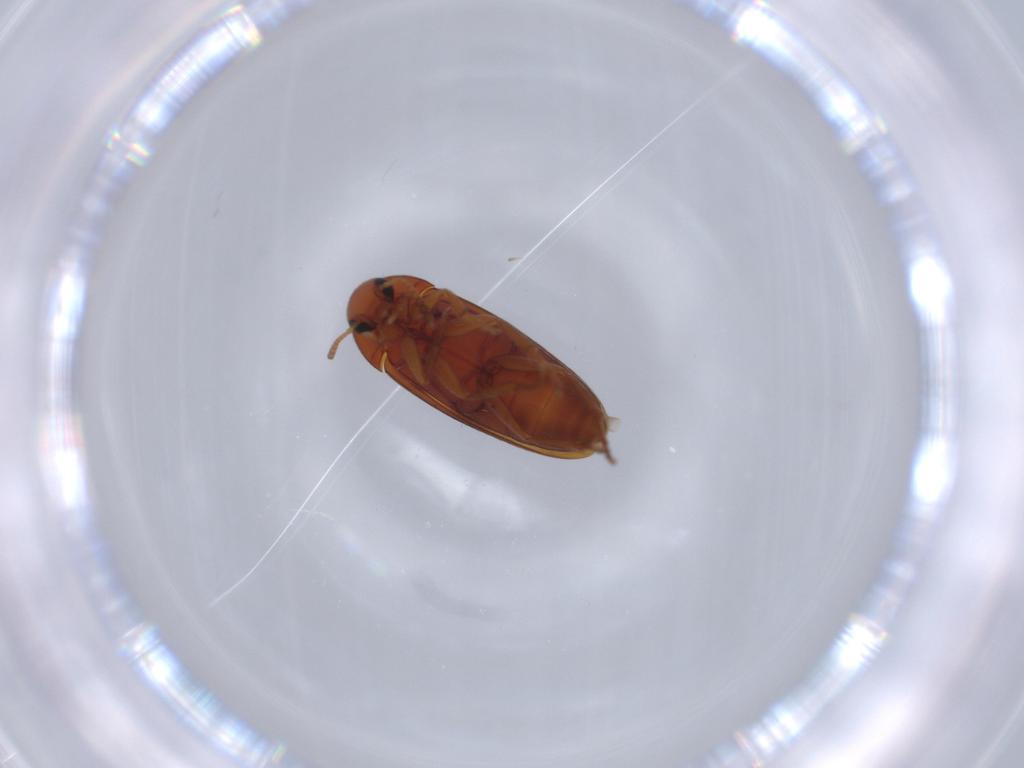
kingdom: Animalia
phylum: Arthropoda
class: Insecta
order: Coleoptera
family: Scraptiidae
